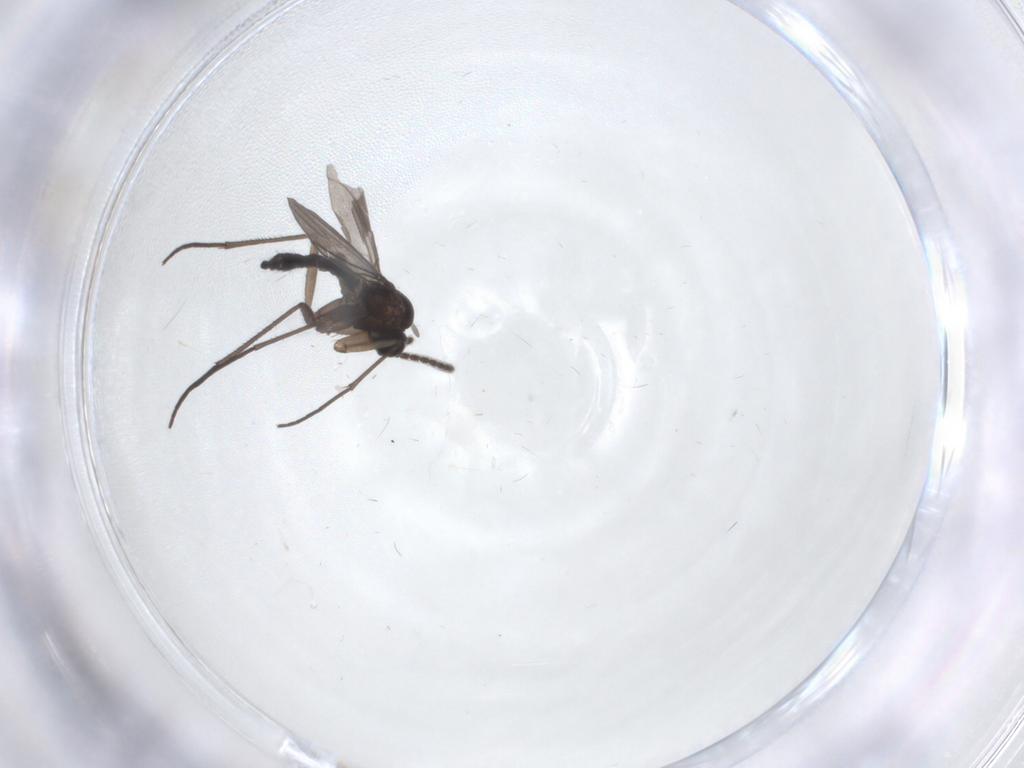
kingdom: Animalia
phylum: Arthropoda
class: Insecta
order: Diptera
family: Sciaridae
